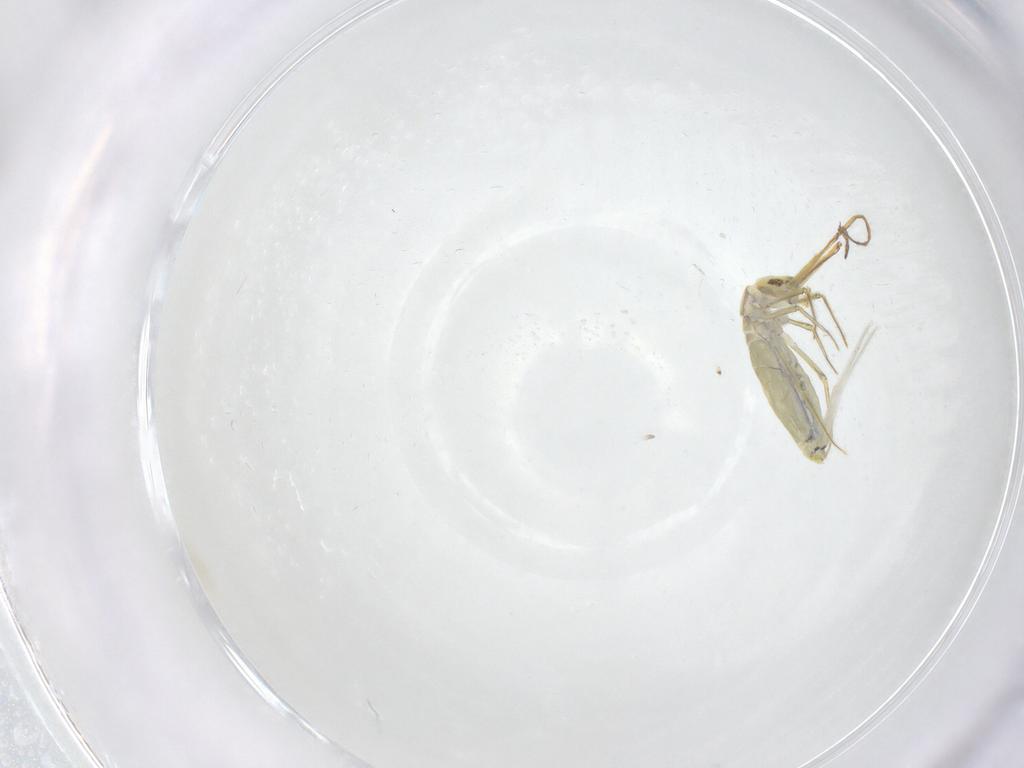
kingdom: Animalia
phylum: Arthropoda
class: Collembola
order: Entomobryomorpha
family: Entomobryidae
